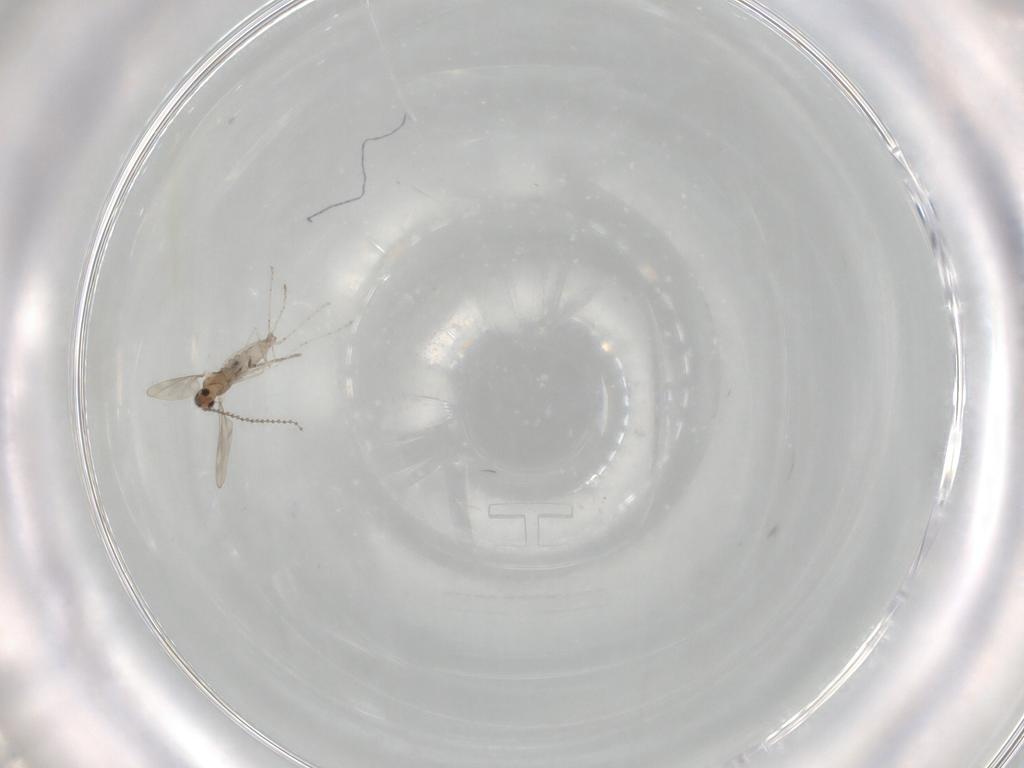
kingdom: Animalia
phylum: Arthropoda
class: Insecta
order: Diptera
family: Cecidomyiidae
